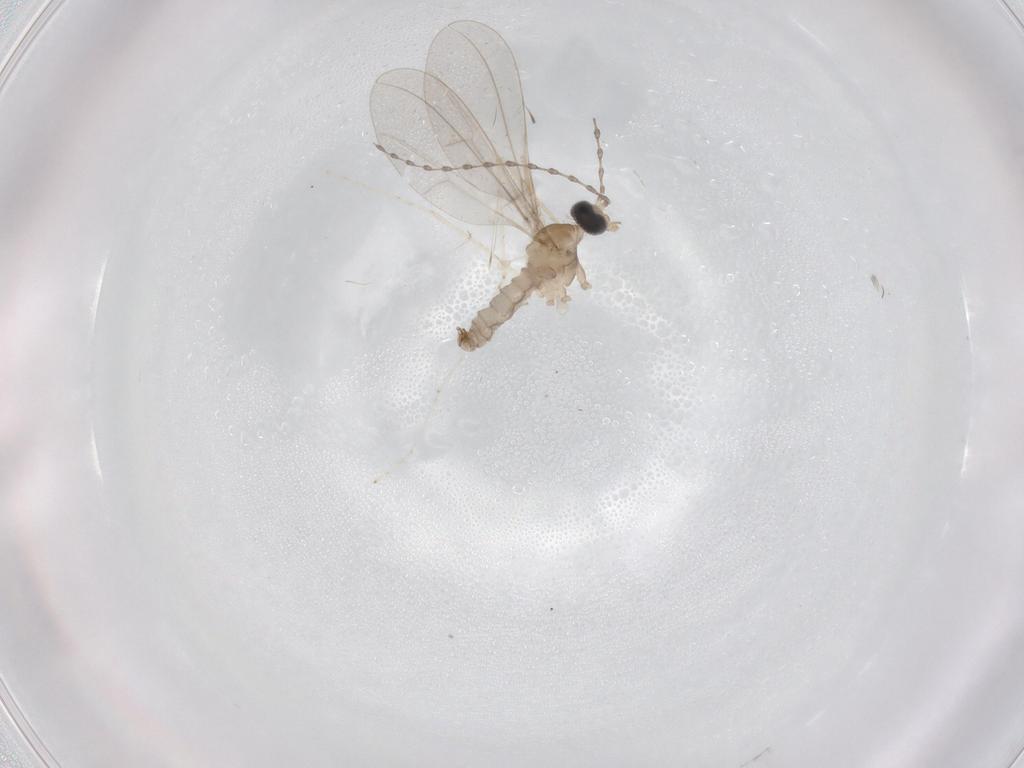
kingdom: Animalia
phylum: Arthropoda
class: Insecta
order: Diptera
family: Cecidomyiidae
